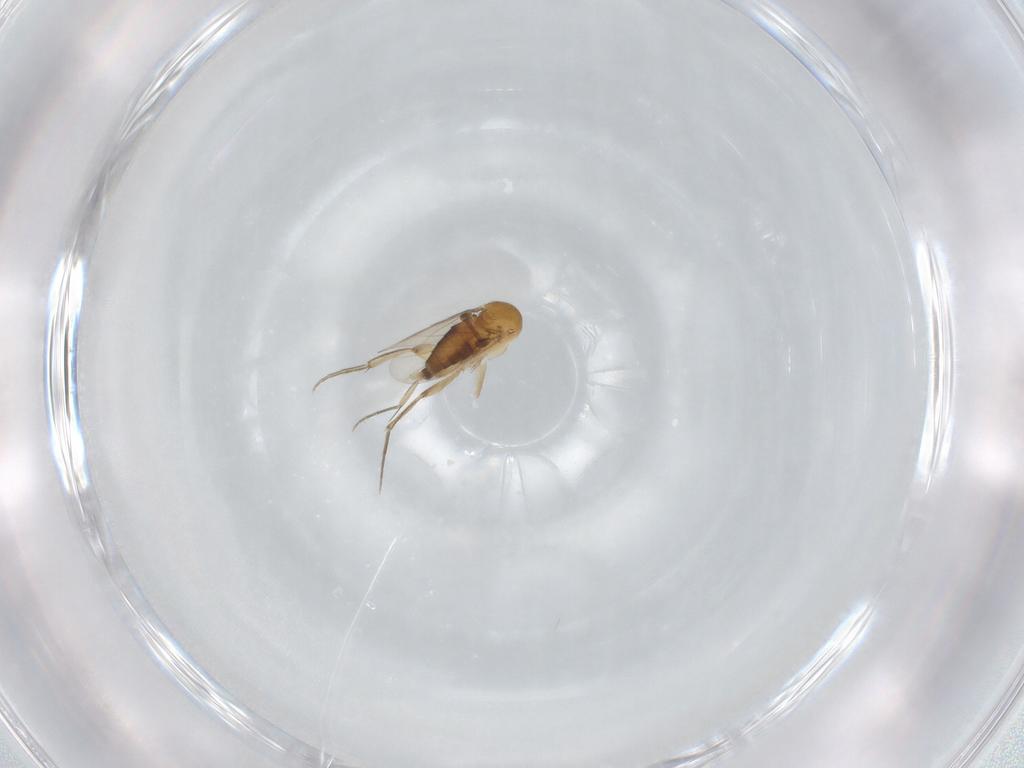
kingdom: Animalia
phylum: Arthropoda
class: Insecta
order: Diptera
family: Phoridae
